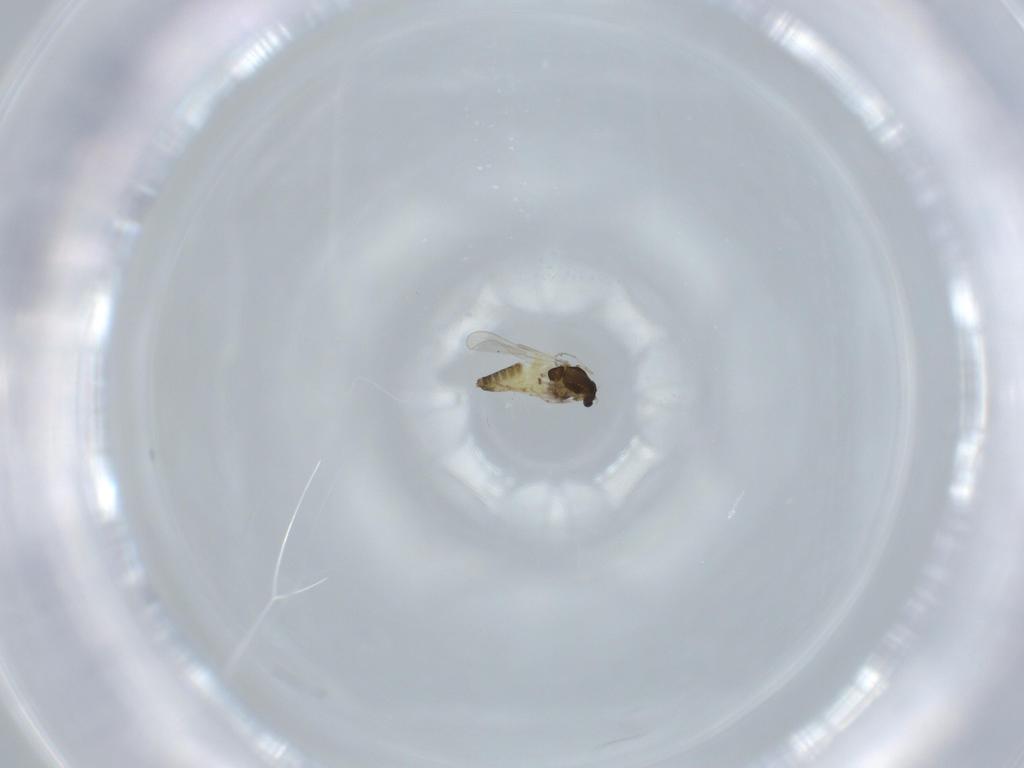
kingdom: Animalia
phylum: Arthropoda
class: Insecta
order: Diptera
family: Chironomidae
